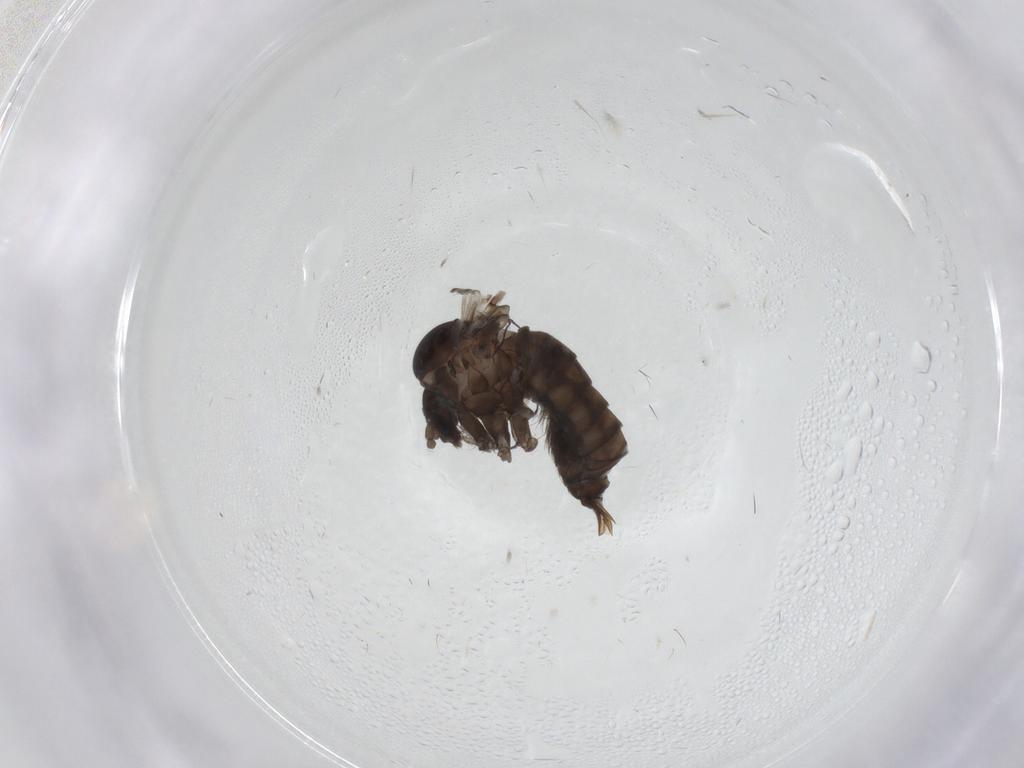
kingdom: Animalia
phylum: Arthropoda
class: Insecta
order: Diptera
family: Psychodidae
